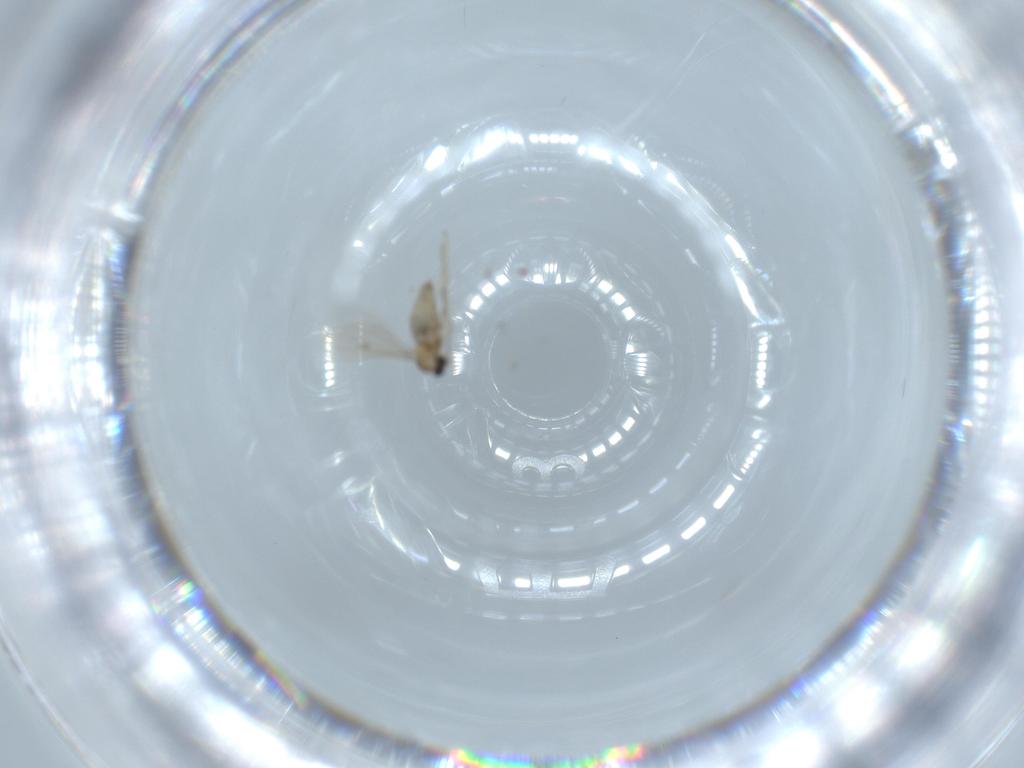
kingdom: Animalia
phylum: Arthropoda
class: Insecta
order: Diptera
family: Cecidomyiidae
